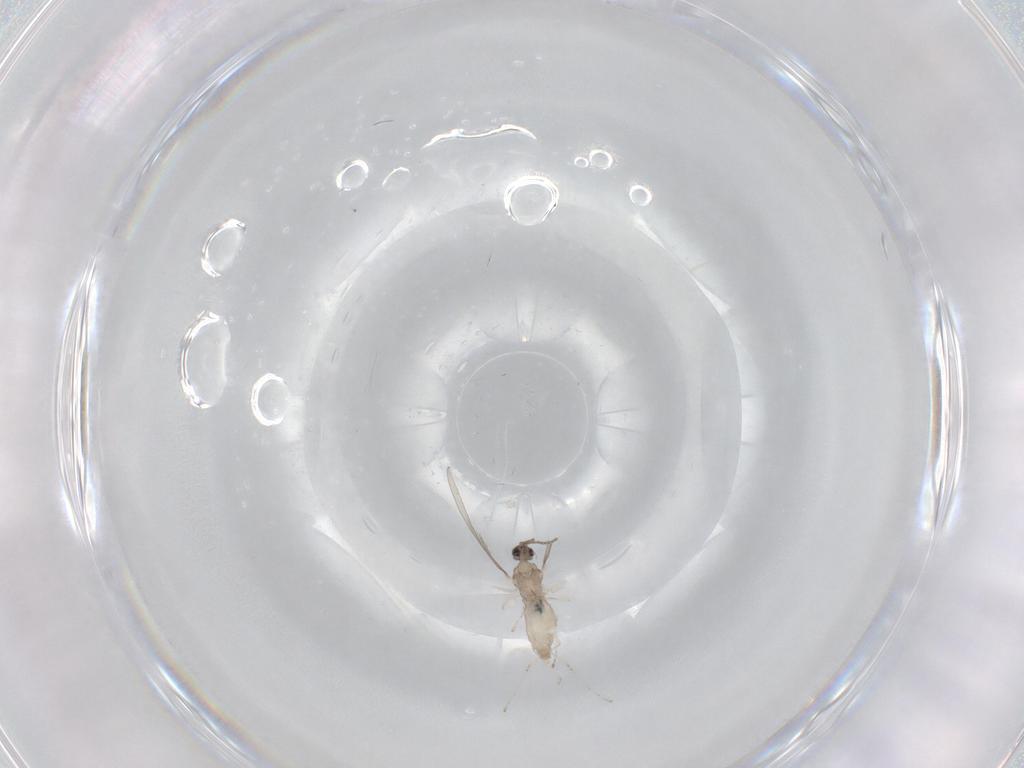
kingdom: Animalia
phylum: Arthropoda
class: Insecta
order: Diptera
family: Cecidomyiidae
